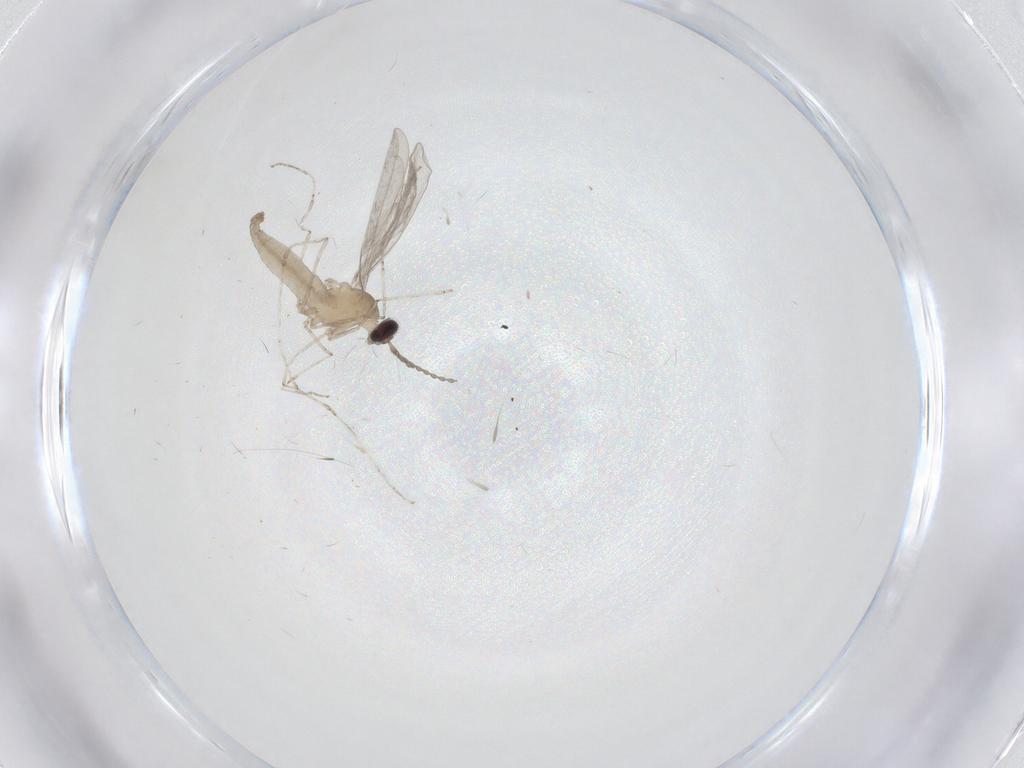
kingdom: Animalia
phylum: Arthropoda
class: Insecta
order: Diptera
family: Cecidomyiidae
